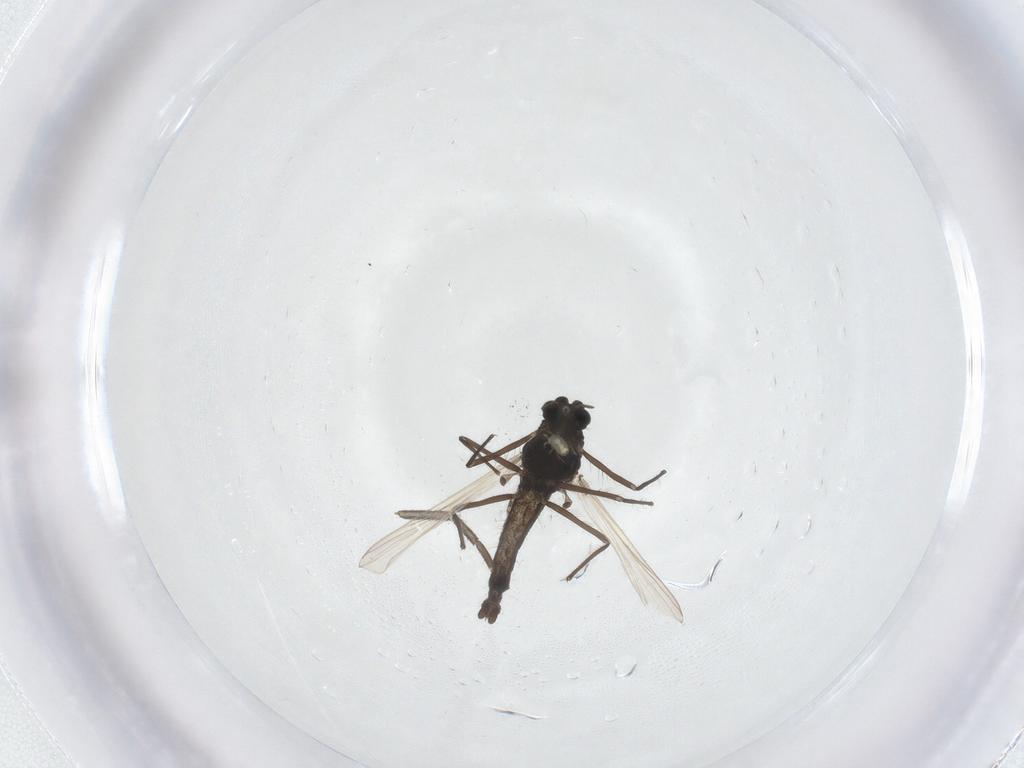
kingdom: Animalia
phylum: Arthropoda
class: Insecta
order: Diptera
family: Mycetophilidae
